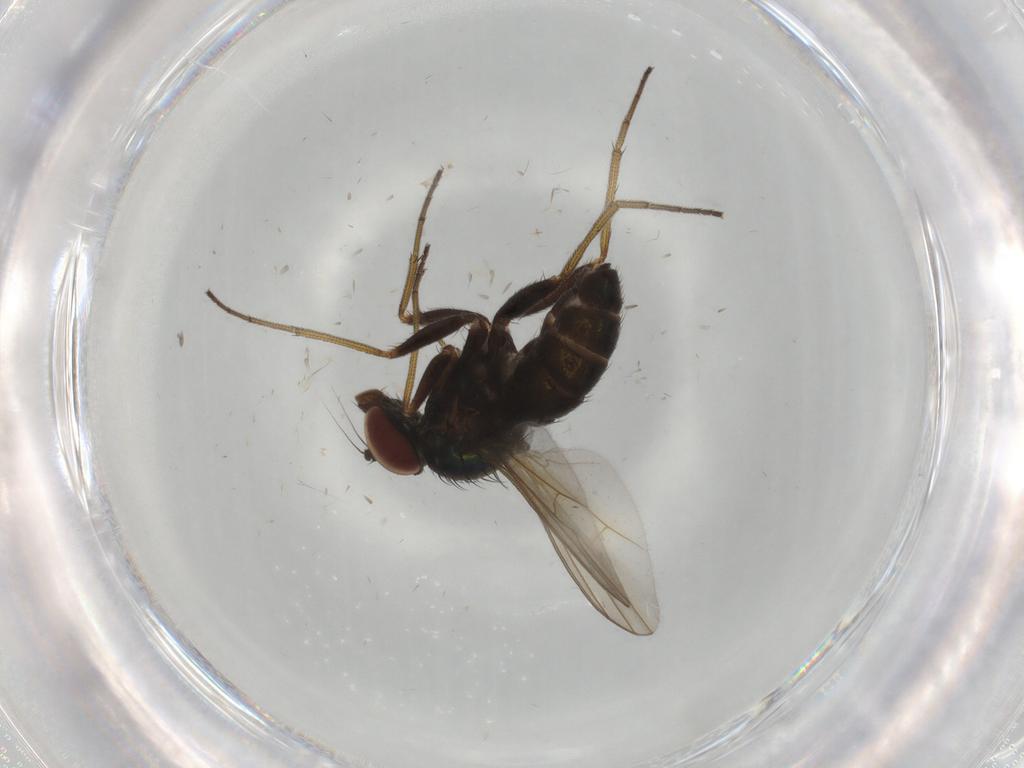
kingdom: Animalia
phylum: Arthropoda
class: Insecta
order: Diptera
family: Dolichopodidae
